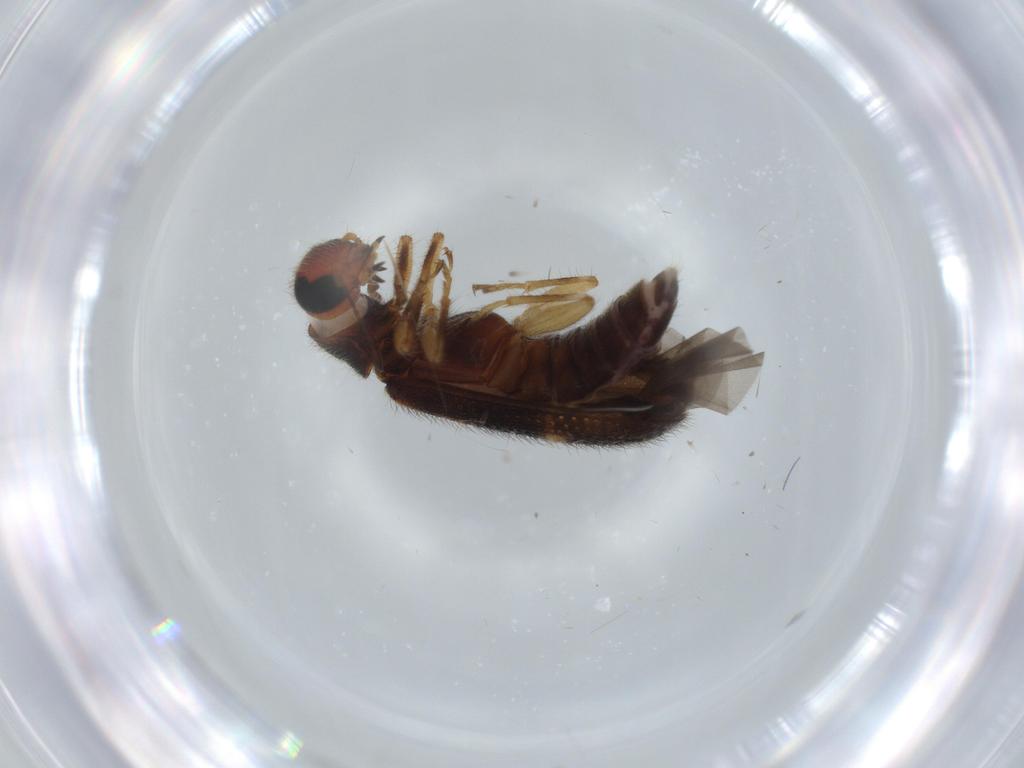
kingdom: Animalia
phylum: Arthropoda
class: Insecta
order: Coleoptera
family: Cleridae
